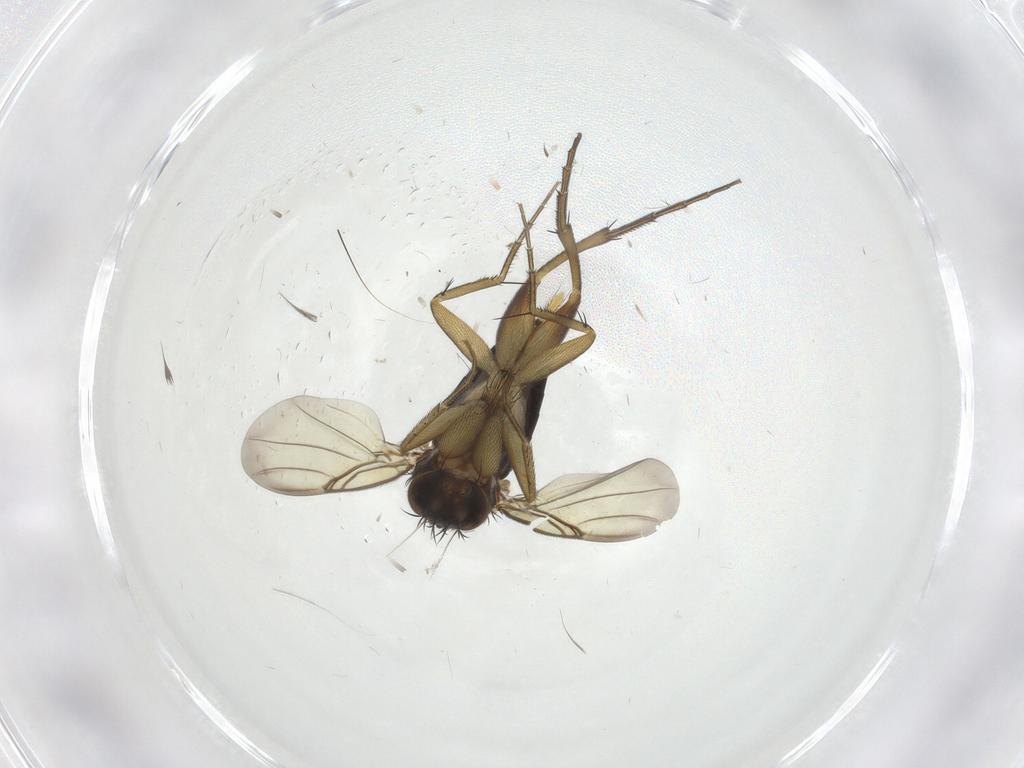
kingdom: Animalia
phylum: Arthropoda
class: Insecta
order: Diptera
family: Phoridae
